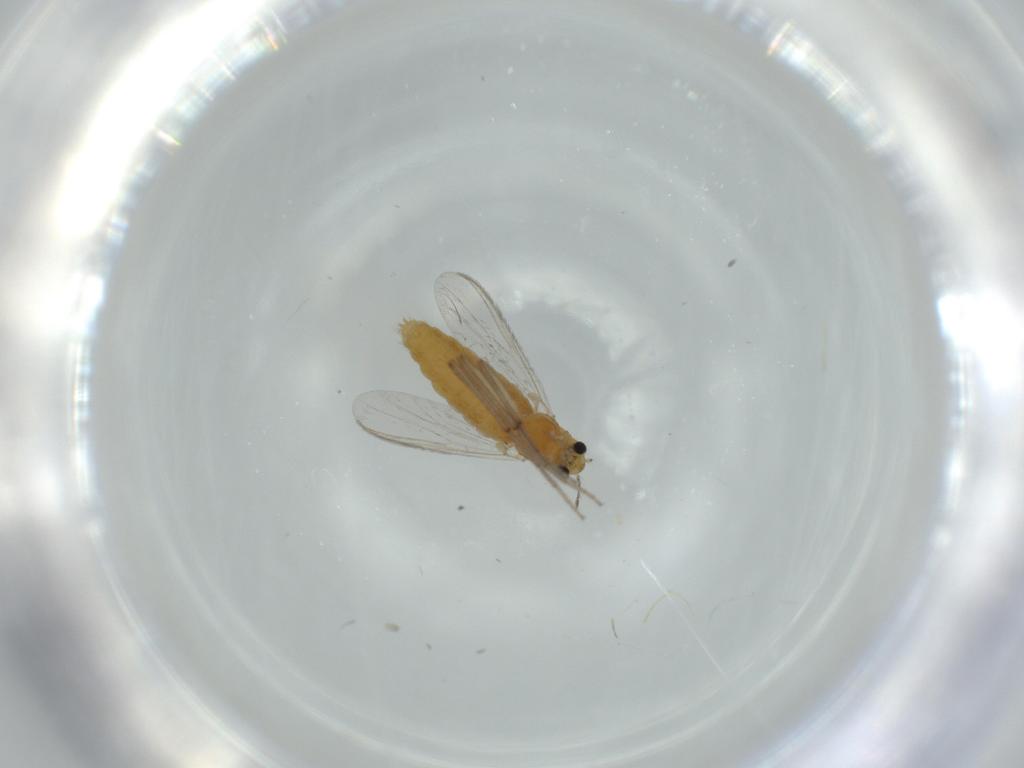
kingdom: Animalia
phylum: Arthropoda
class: Insecta
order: Diptera
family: Chironomidae
